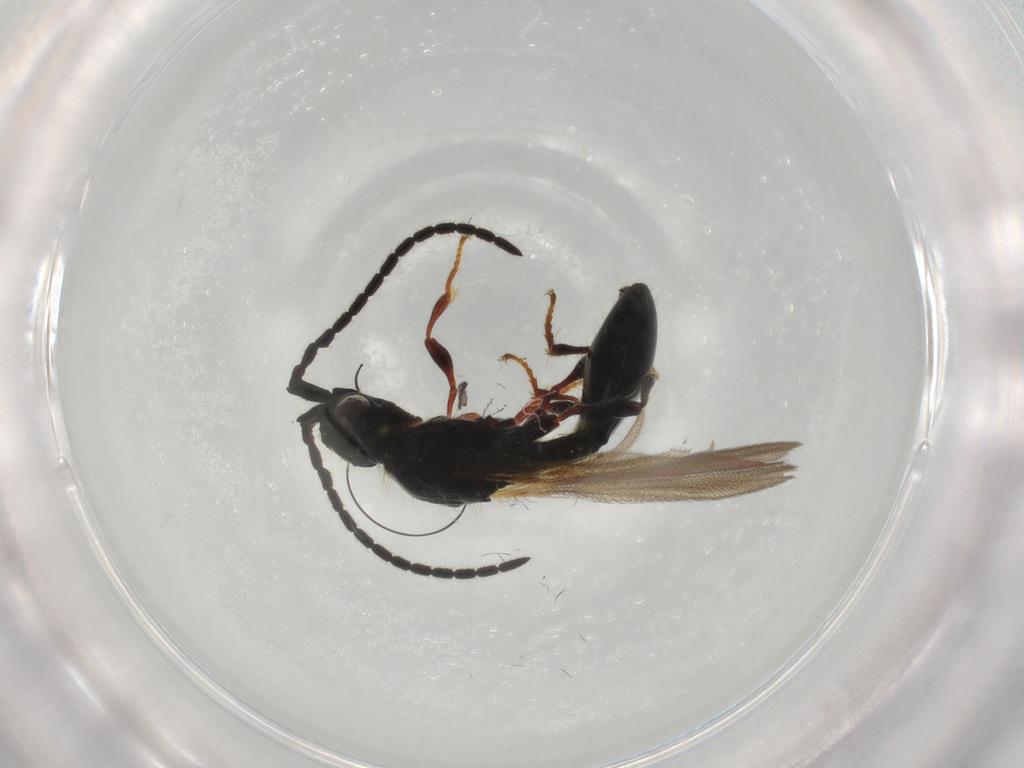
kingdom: Animalia
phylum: Arthropoda
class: Insecta
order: Hymenoptera
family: Diapriidae
